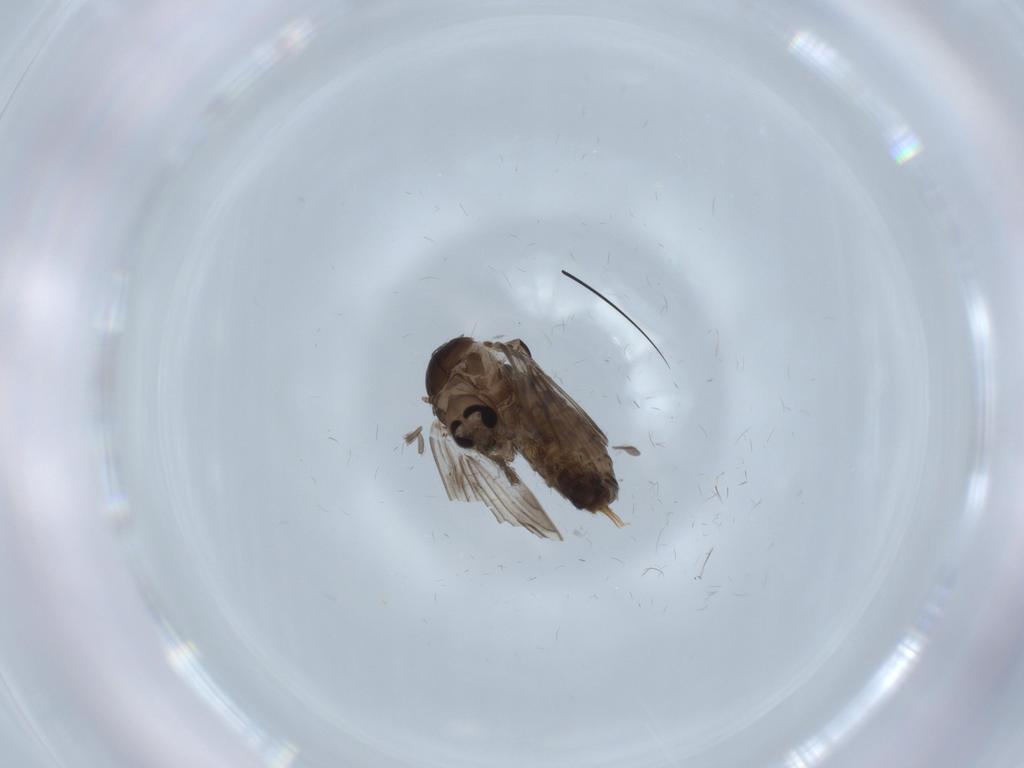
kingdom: Animalia
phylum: Arthropoda
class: Insecta
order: Diptera
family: Psychodidae
